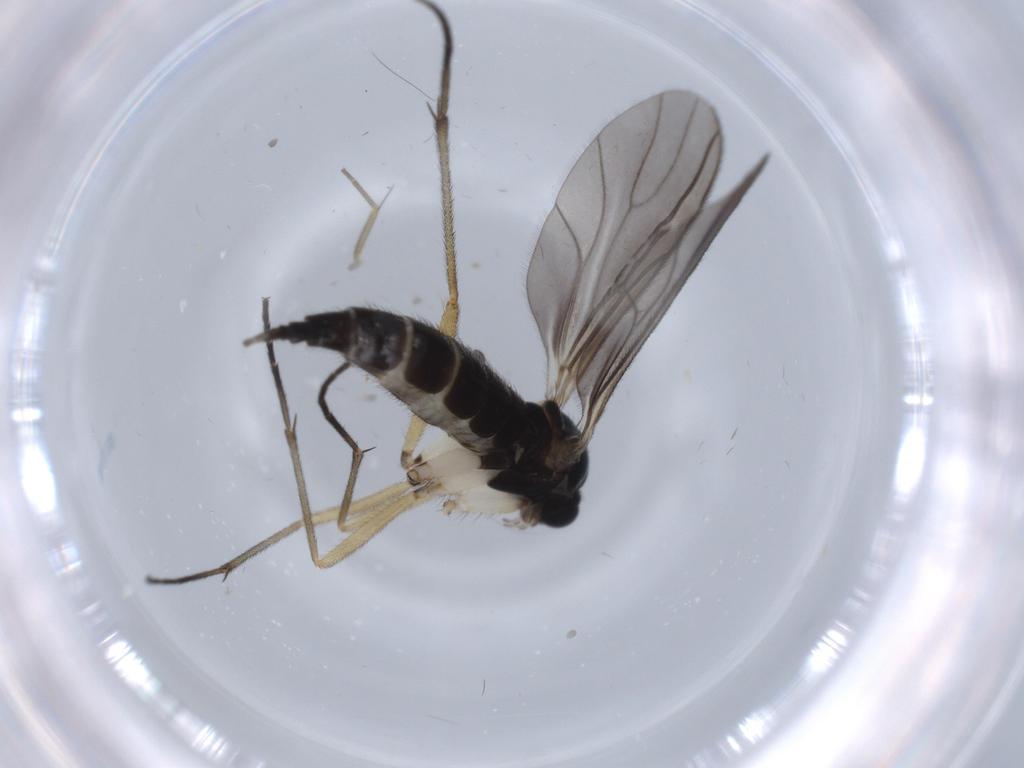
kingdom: Animalia
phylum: Arthropoda
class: Insecta
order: Diptera
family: Sciaridae
